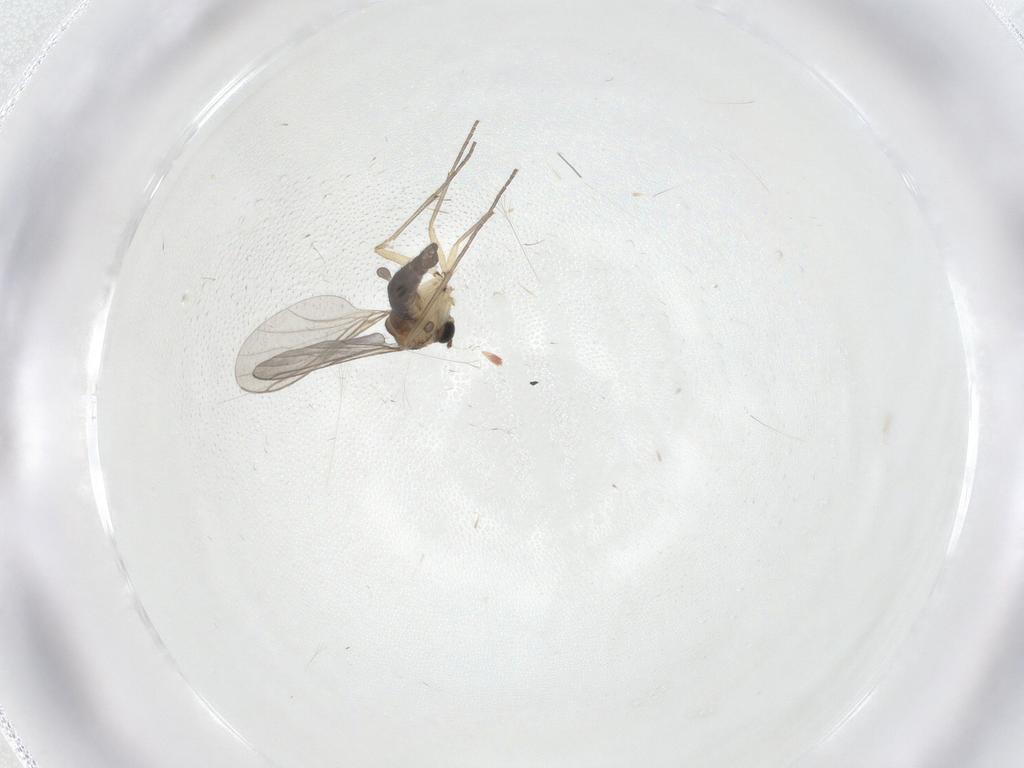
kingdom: Animalia
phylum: Arthropoda
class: Insecta
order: Diptera
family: Sciaridae
